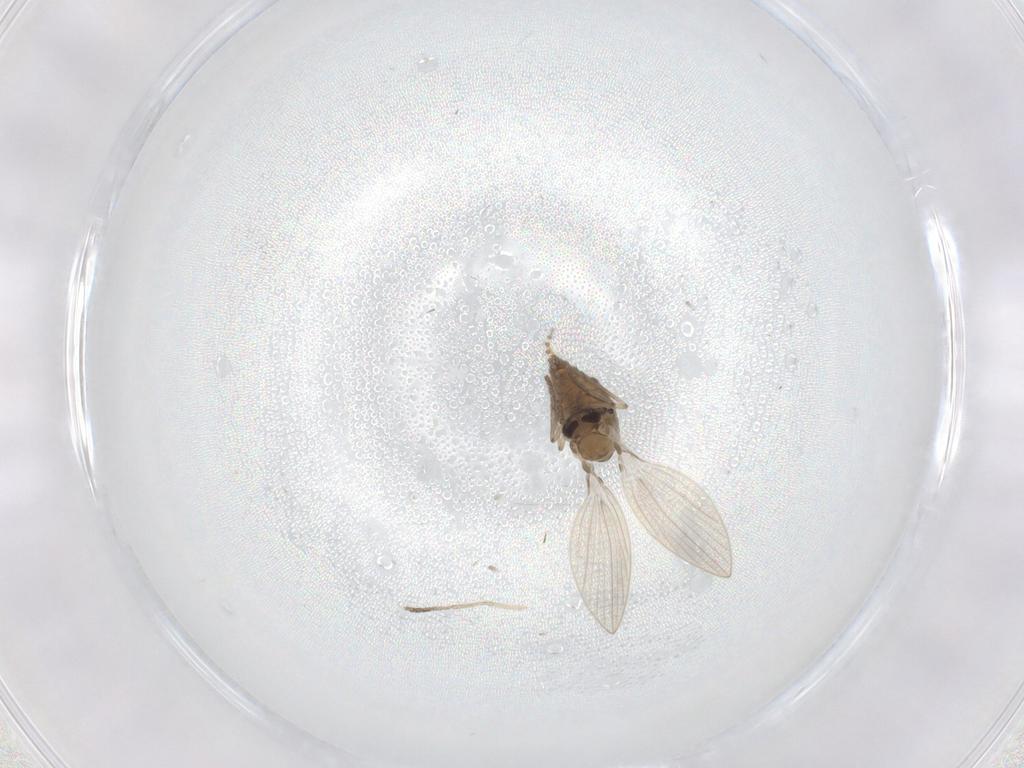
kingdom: Animalia
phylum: Arthropoda
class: Insecta
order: Diptera
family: Psychodidae
